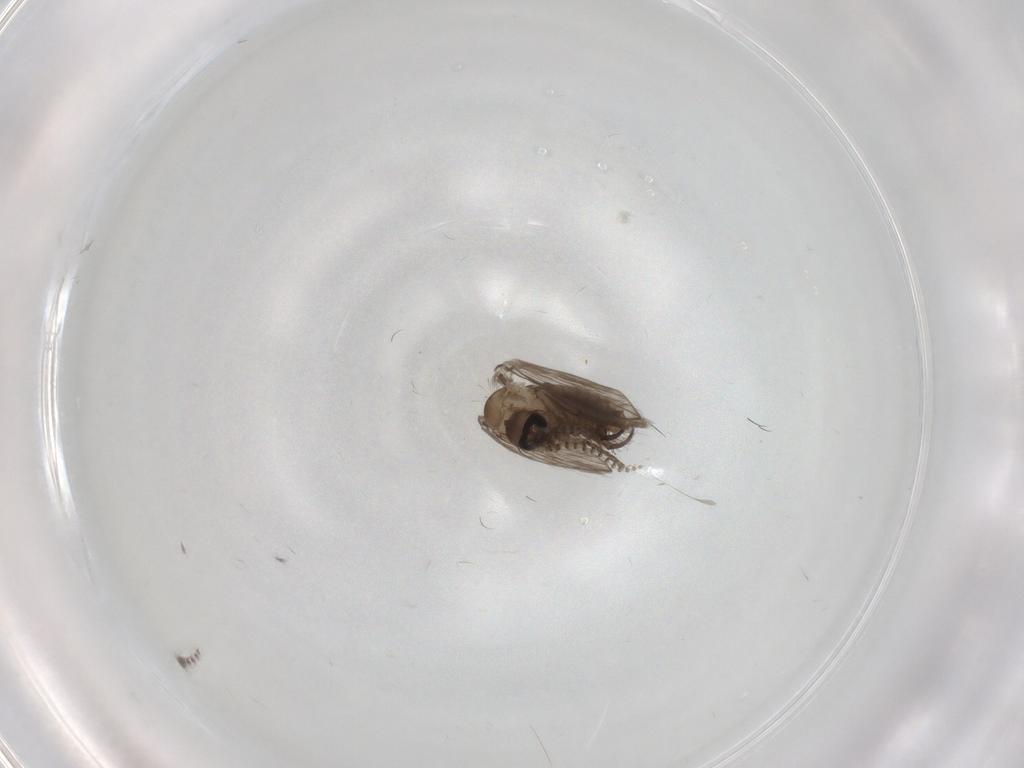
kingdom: Animalia
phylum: Arthropoda
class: Insecta
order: Diptera
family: Psychodidae
